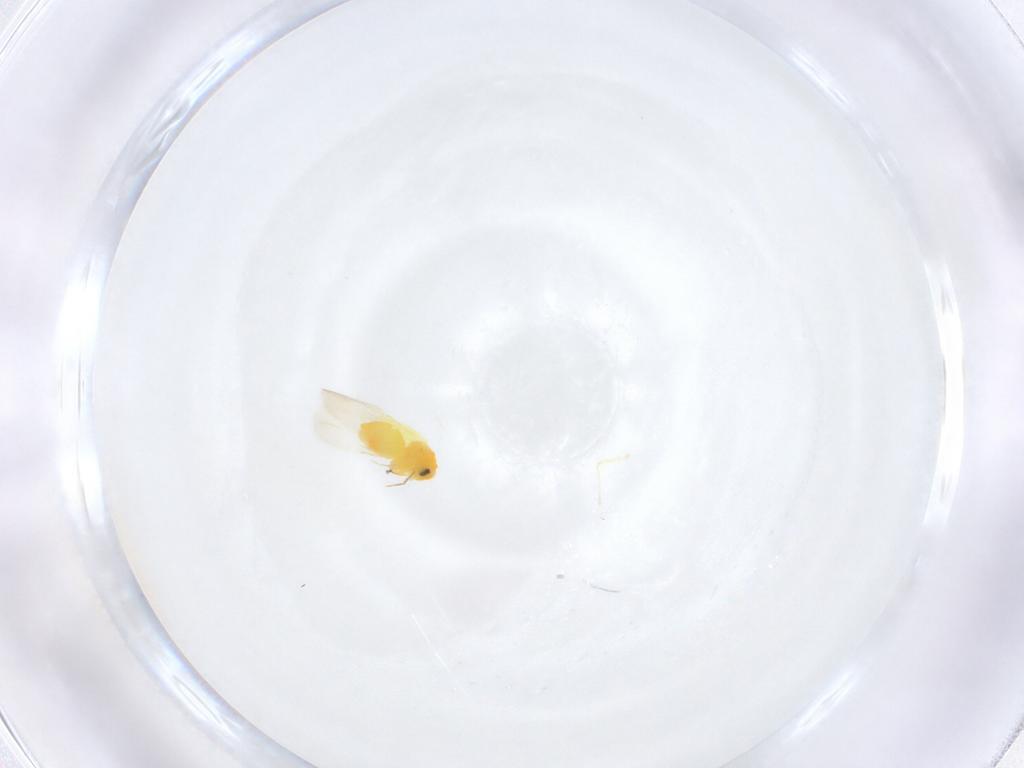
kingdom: Animalia
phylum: Arthropoda
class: Insecta
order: Hemiptera
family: Aleyrodidae
